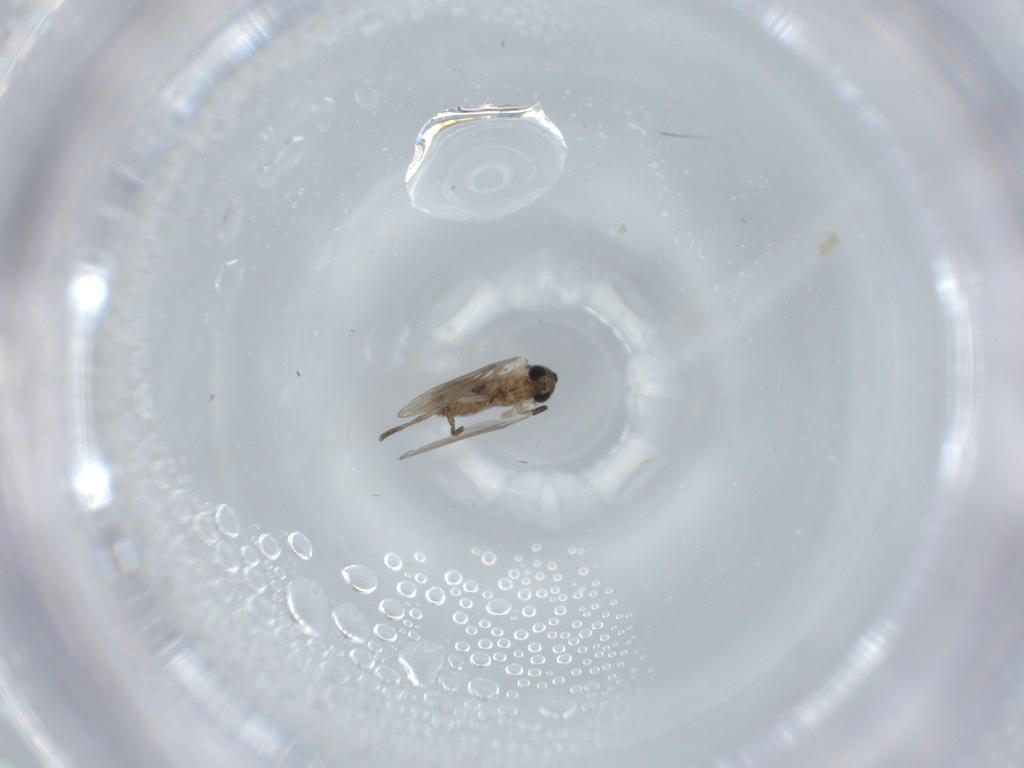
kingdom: Animalia
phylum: Arthropoda
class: Insecta
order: Diptera
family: Psychodidae
